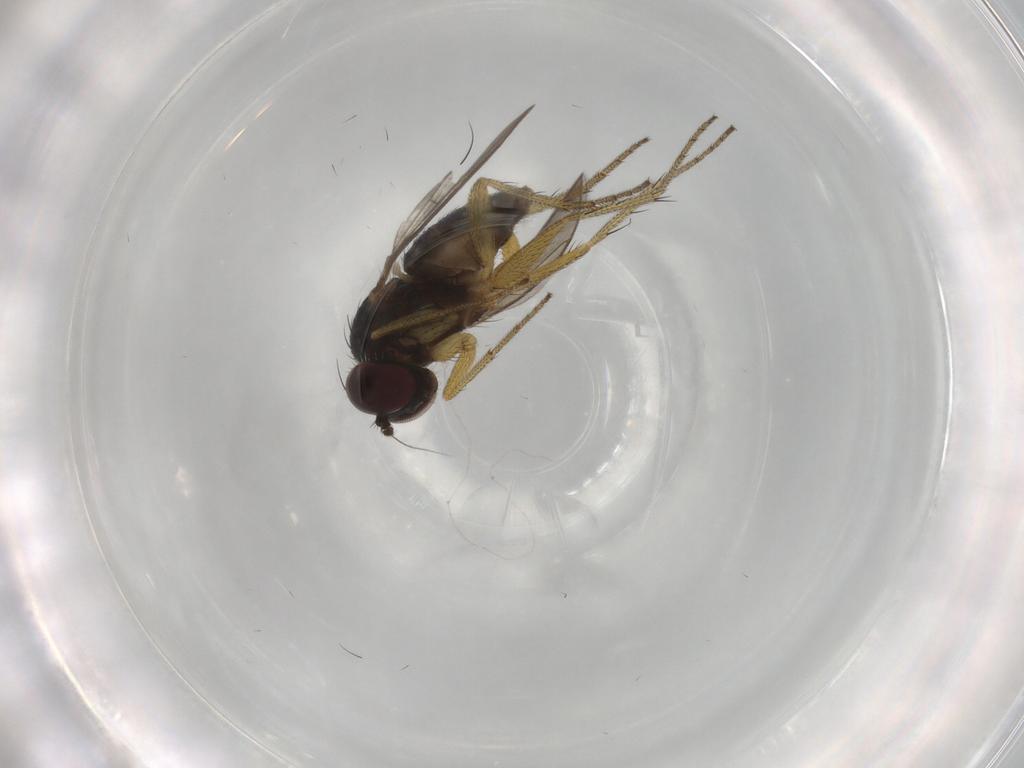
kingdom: Animalia
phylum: Arthropoda
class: Insecta
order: Diptera
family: Dolichopodidae
